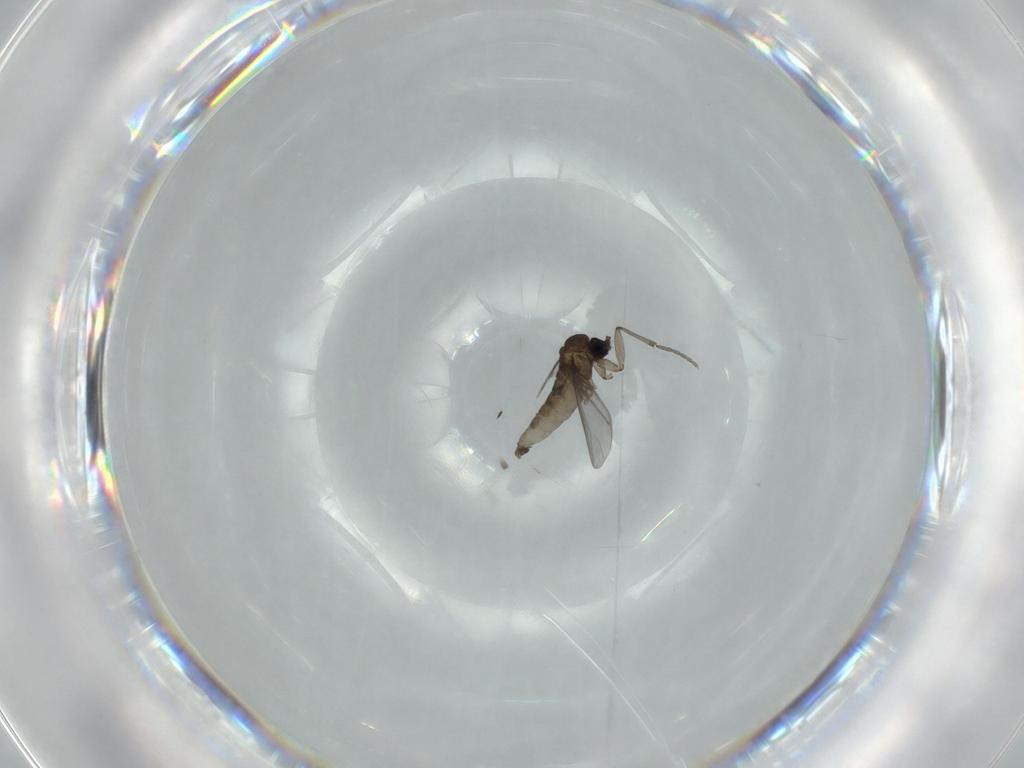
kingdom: Animalia
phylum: Arthropoda
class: Insecta
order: Diptera
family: Sciaridae
